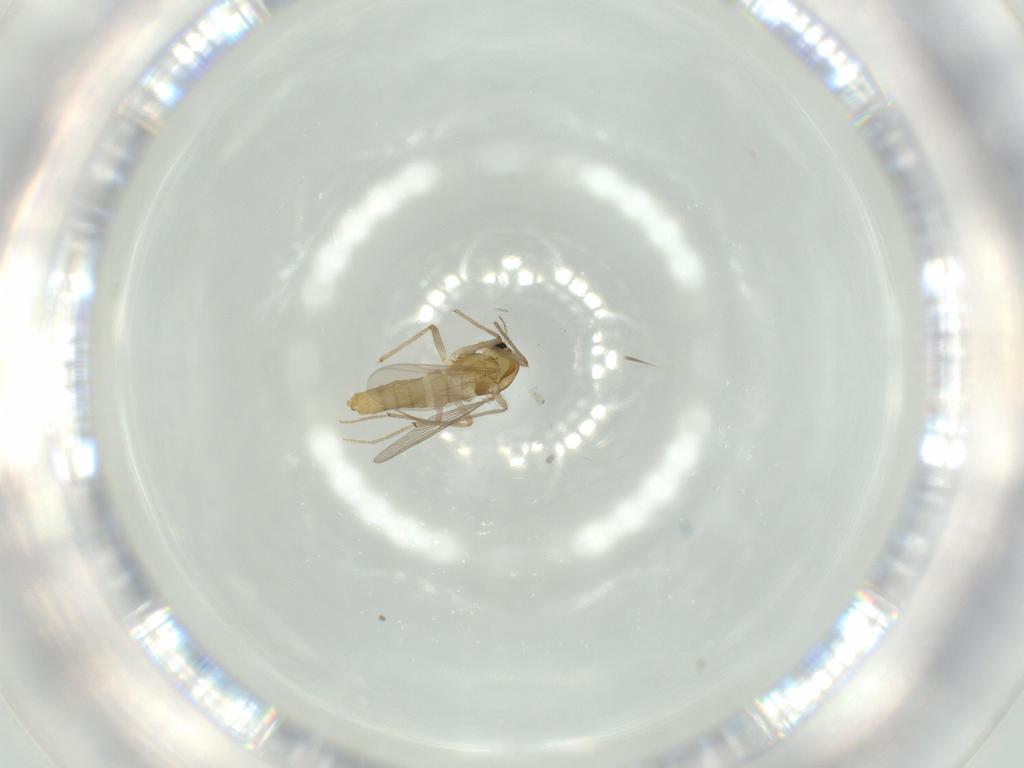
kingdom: Animalia
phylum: Arthropoda
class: Insecta
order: Diptera
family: Chironomidae
